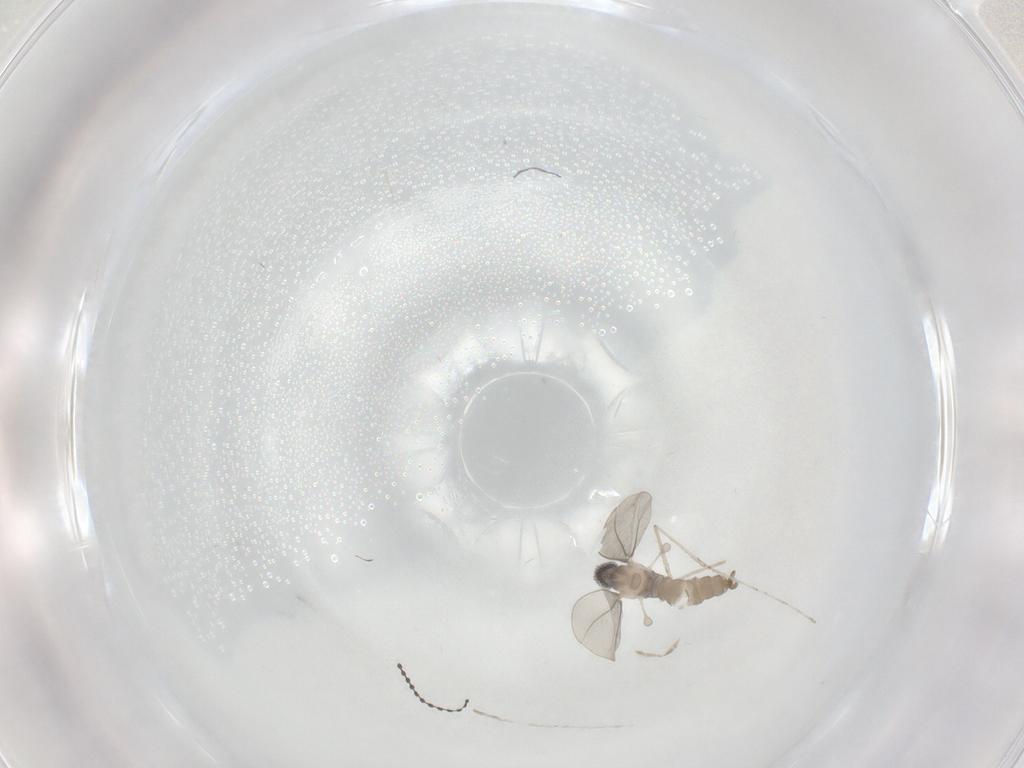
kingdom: Animalia
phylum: Arthropoda
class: Insecta
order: Diptera
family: Cecidomyiidae
